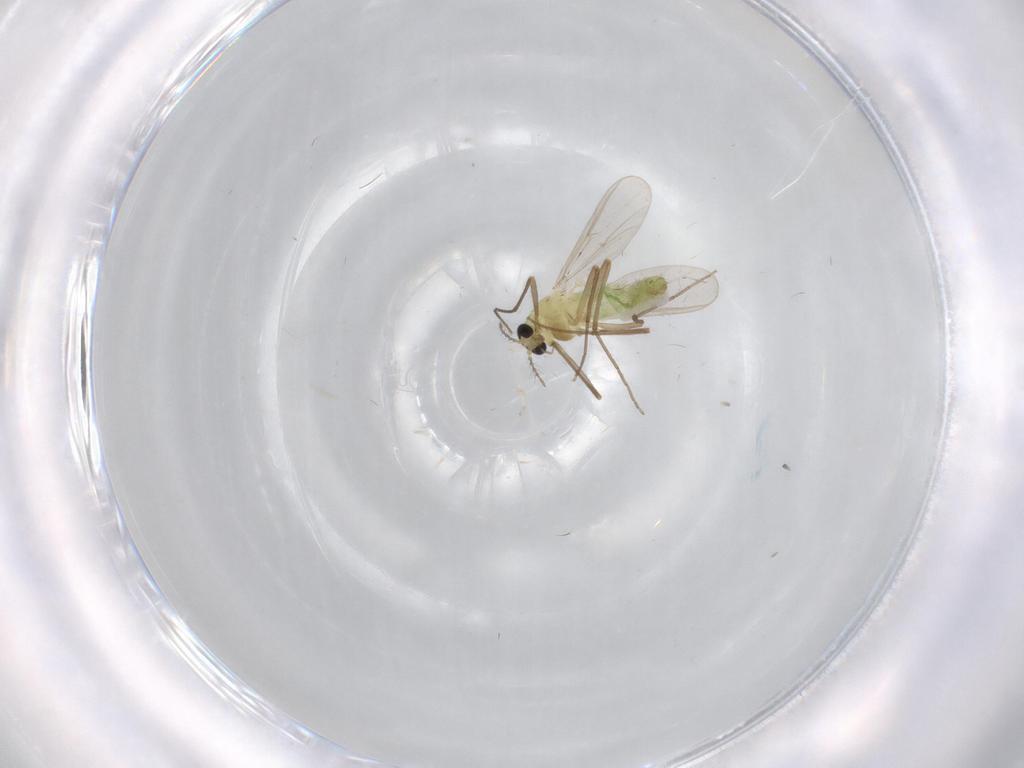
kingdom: Animalia
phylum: Arthropoda
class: Insecta
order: Diptera
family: Chironomidae
